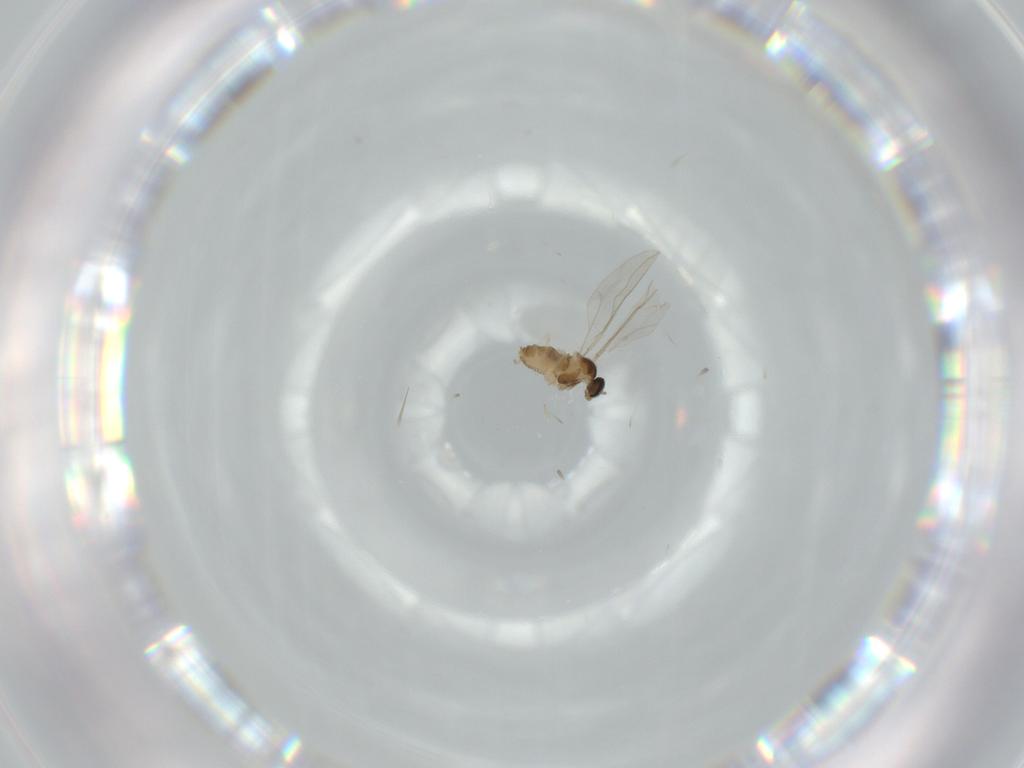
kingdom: Animalia
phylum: Arthropoda
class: Insecta
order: Diptera
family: Cecidomyiidae
